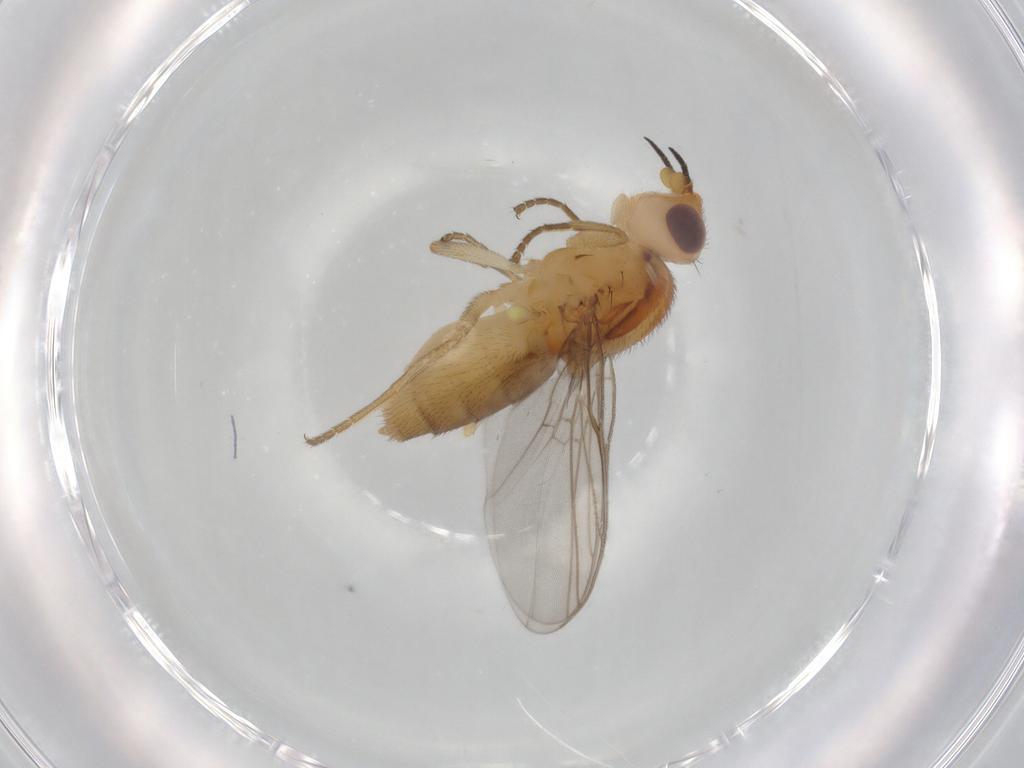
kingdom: Animalia
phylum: Arthropoda
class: Insecta
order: Diptera
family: Chloropidae
